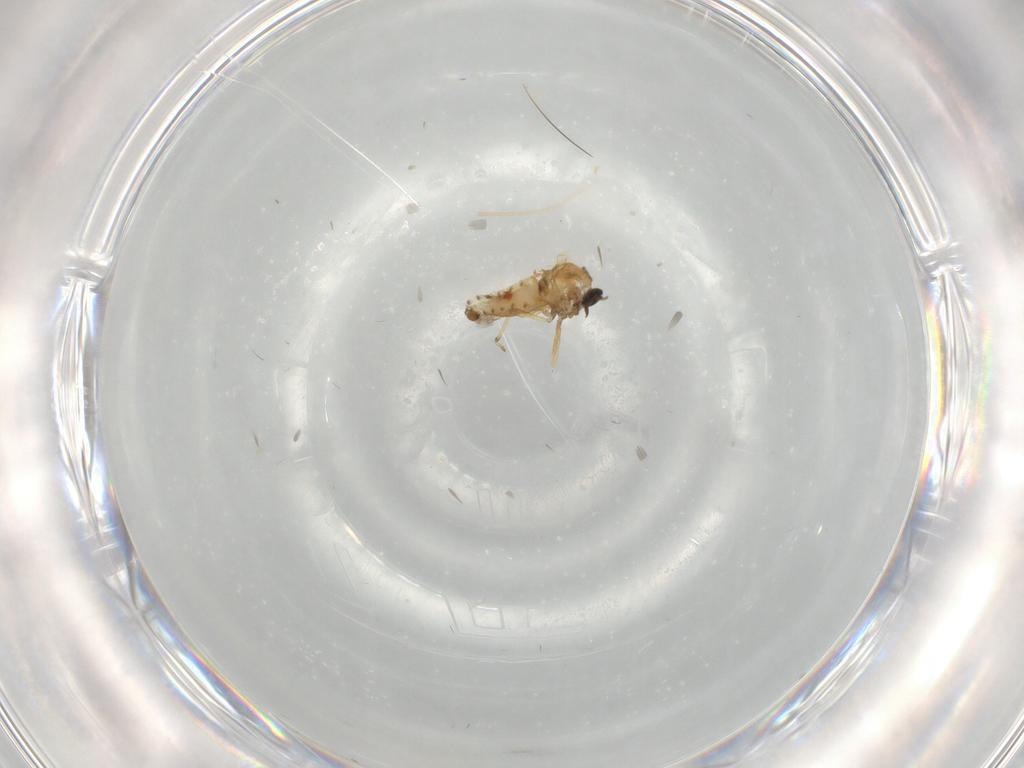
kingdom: Animalia
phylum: Arthropoda
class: Insecta
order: Diptera
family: Ceratopogonidae
